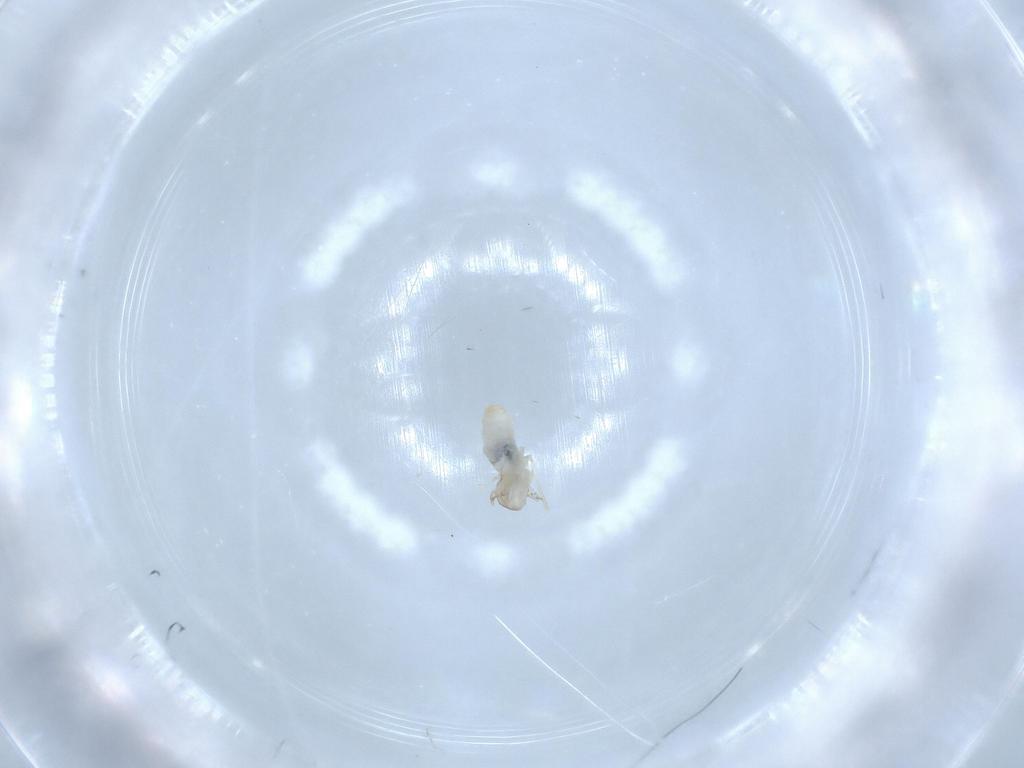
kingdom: Animalia
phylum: Arthropoda
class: Insecta
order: Diptera
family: Cecidomyiidae
